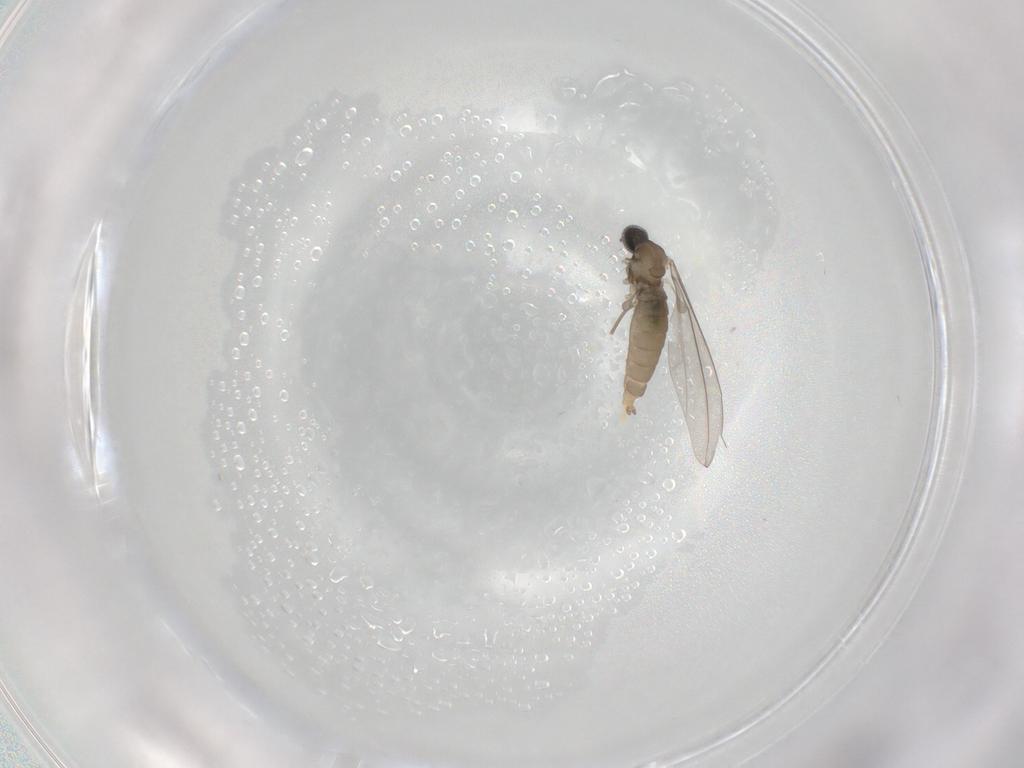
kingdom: Animalia
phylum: Arthropoda
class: Insecta
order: Diptera
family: Cecidomyiidae
